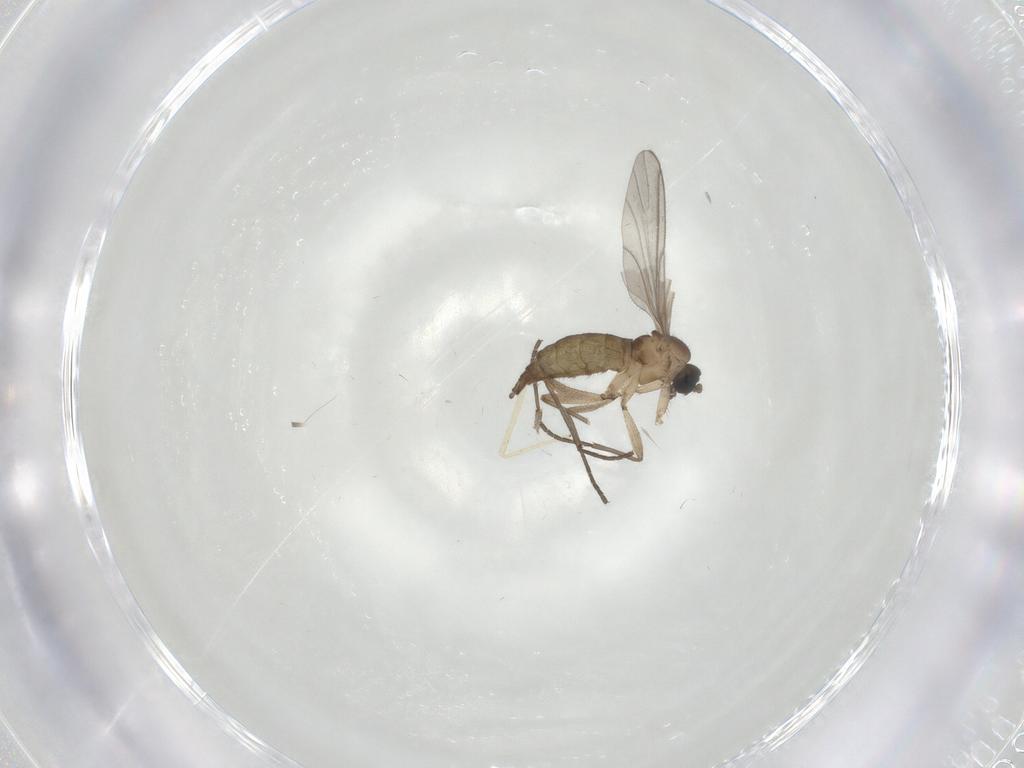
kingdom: Animalia
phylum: Arthropoda
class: Insecta
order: Diptera
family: Sciaridae
